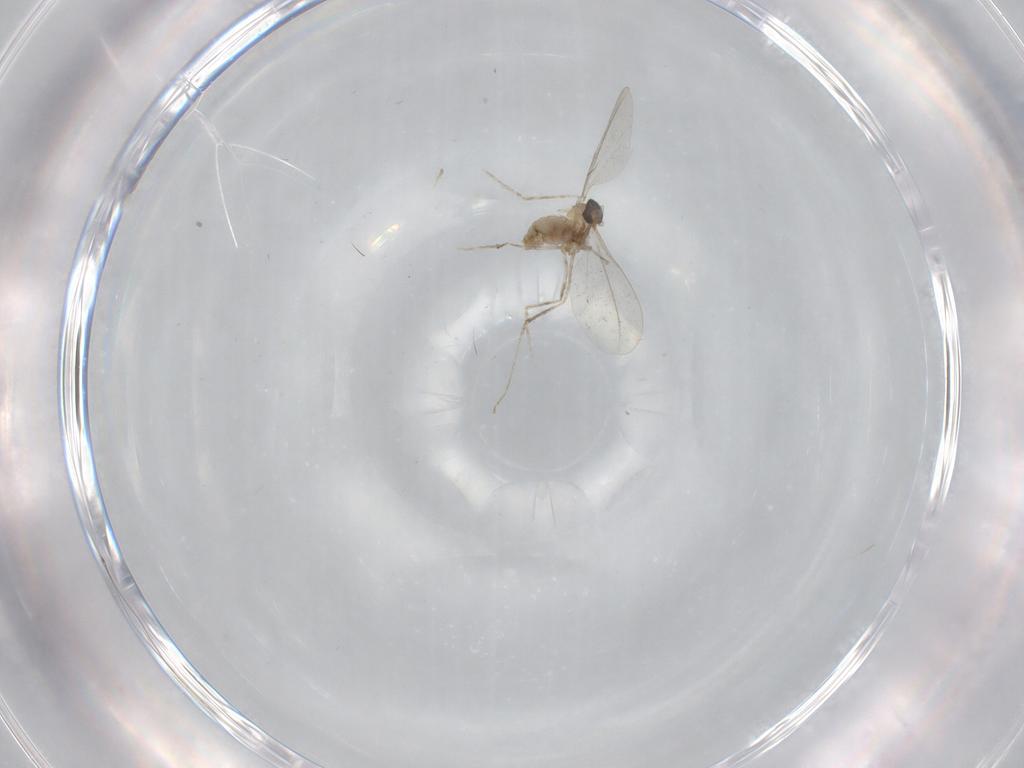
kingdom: Animalia
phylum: Arthropoda
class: Insecta
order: Diptera
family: Cecidomyiidae
